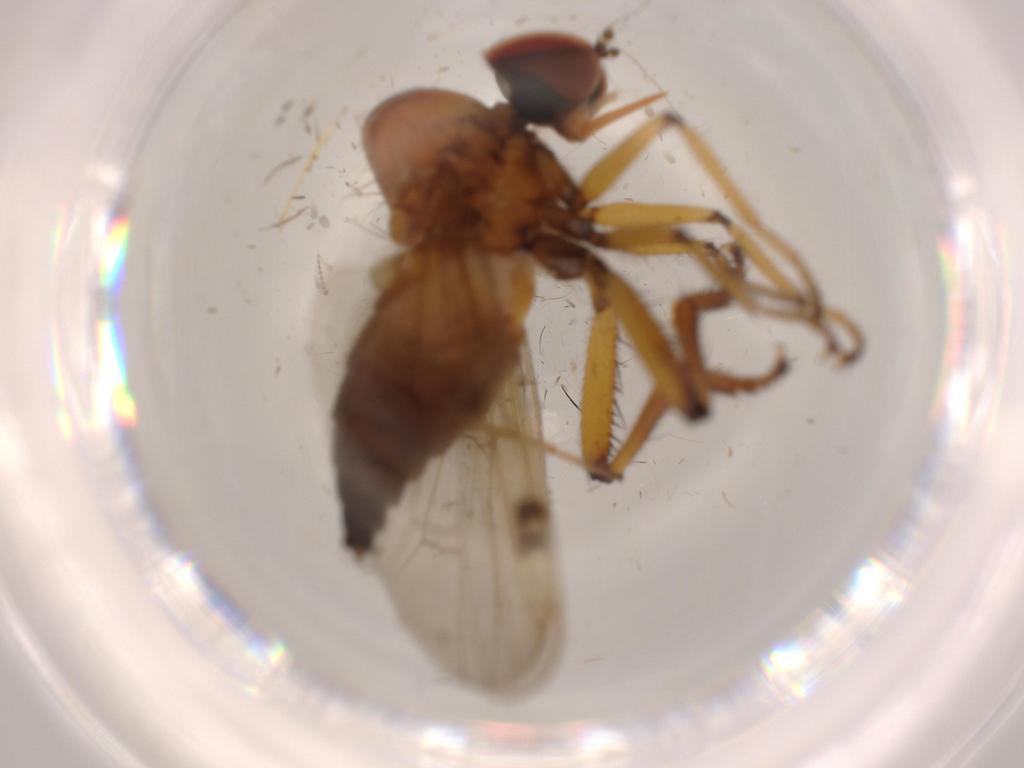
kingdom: Animalia
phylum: Arthropoda
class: Insecta
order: Diptera
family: Hybotidae
